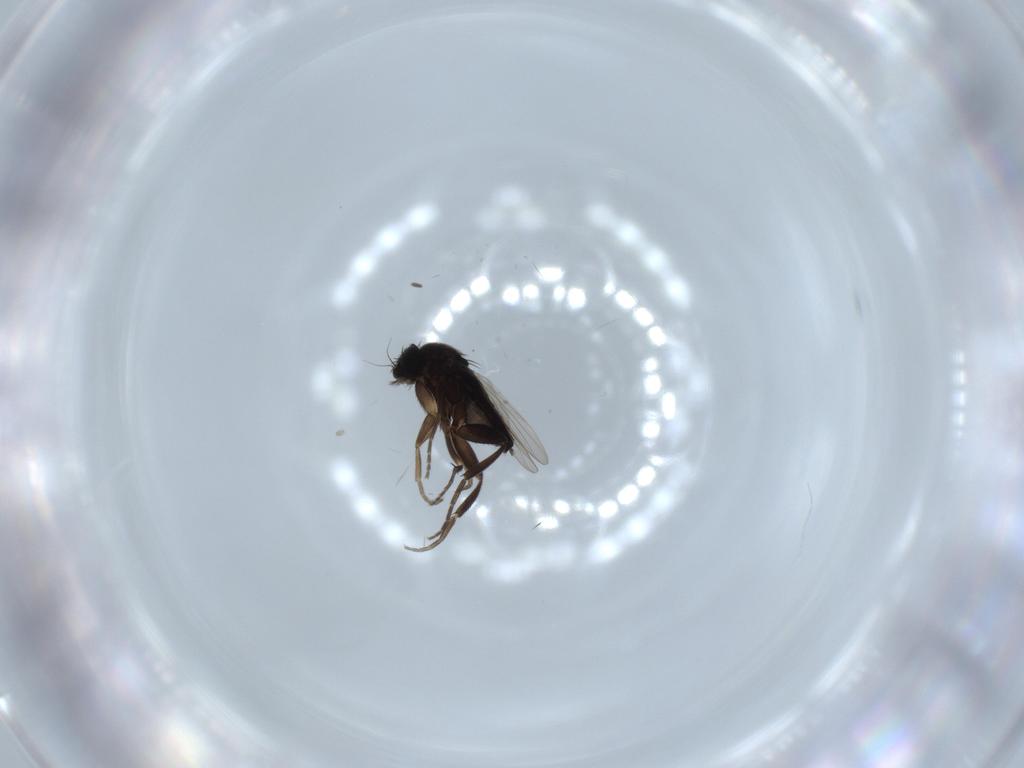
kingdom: Animalia
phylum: Arthropoda
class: Insecta
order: Diptera
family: Phoridae
